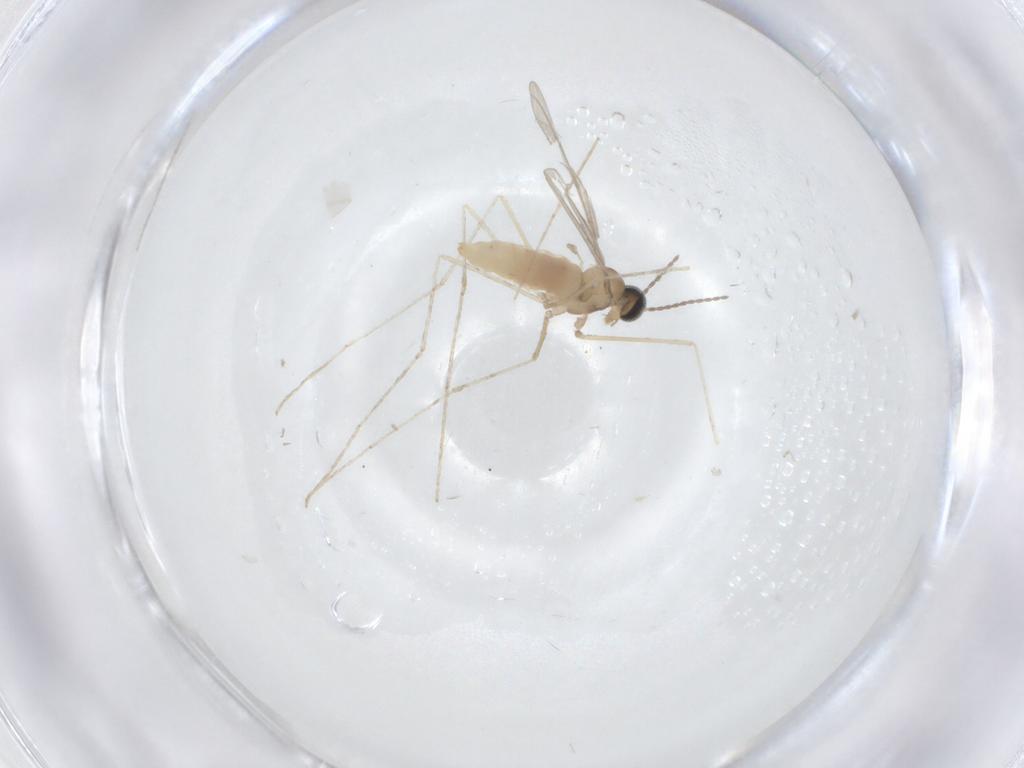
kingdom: Animalia
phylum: Arthropoda
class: Insecta
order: Diptera
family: Cecidomyiidae
